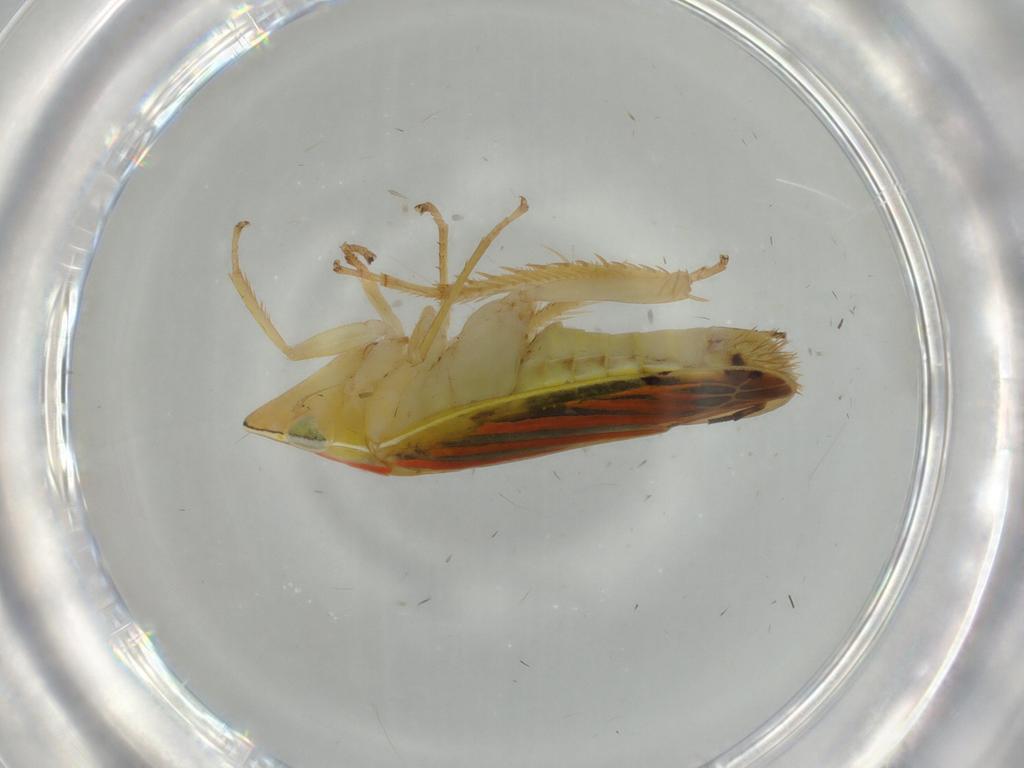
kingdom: Animalia
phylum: Arthropoda
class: Insecta
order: Hemiptera
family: Cicadellidae
